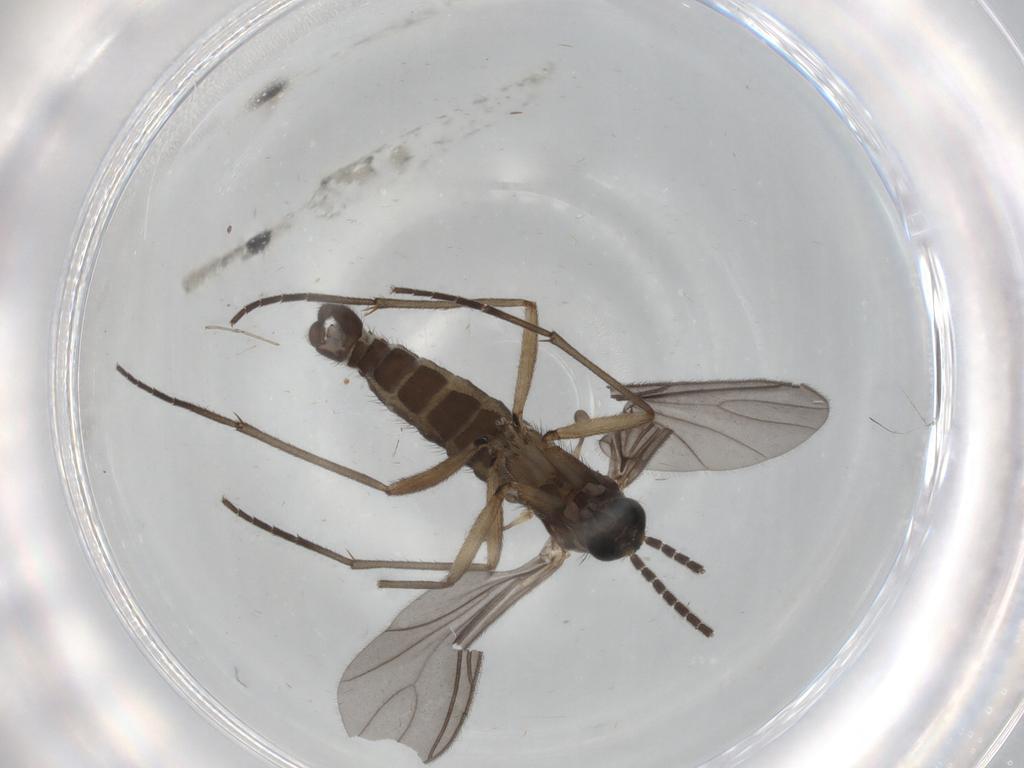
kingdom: Animalia
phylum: Arthropoda
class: Insecta
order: Diptera
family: Sciaridae
